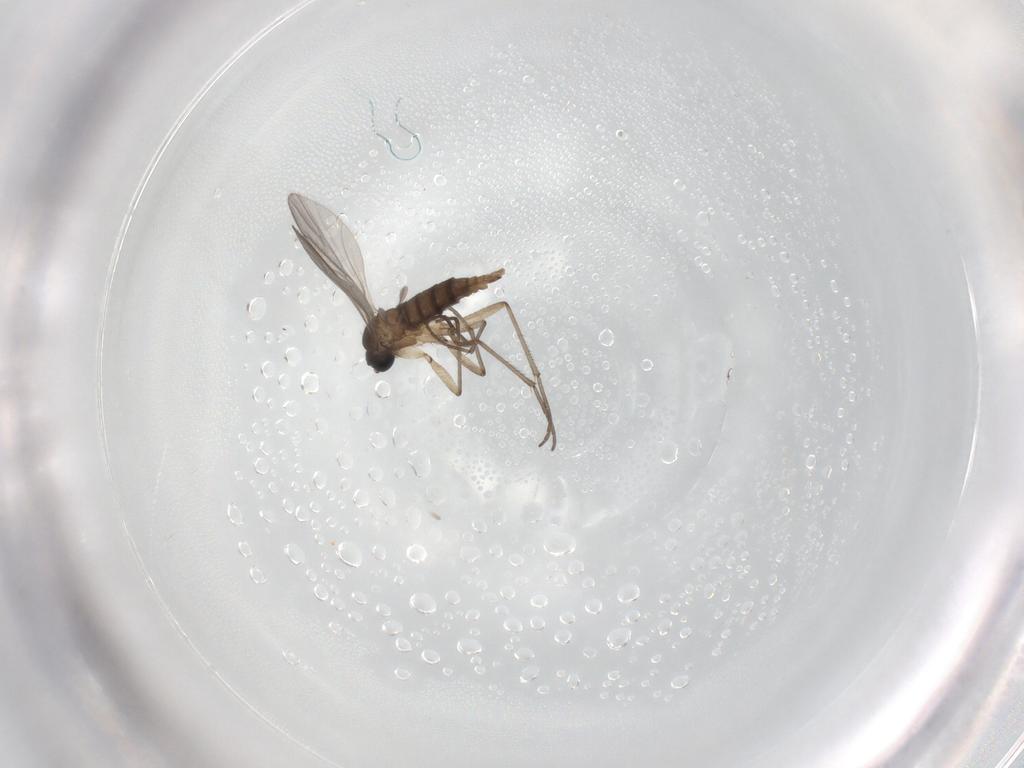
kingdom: Animalia
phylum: Arthropoda
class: Insecta
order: Diptera
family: Sciaridae
